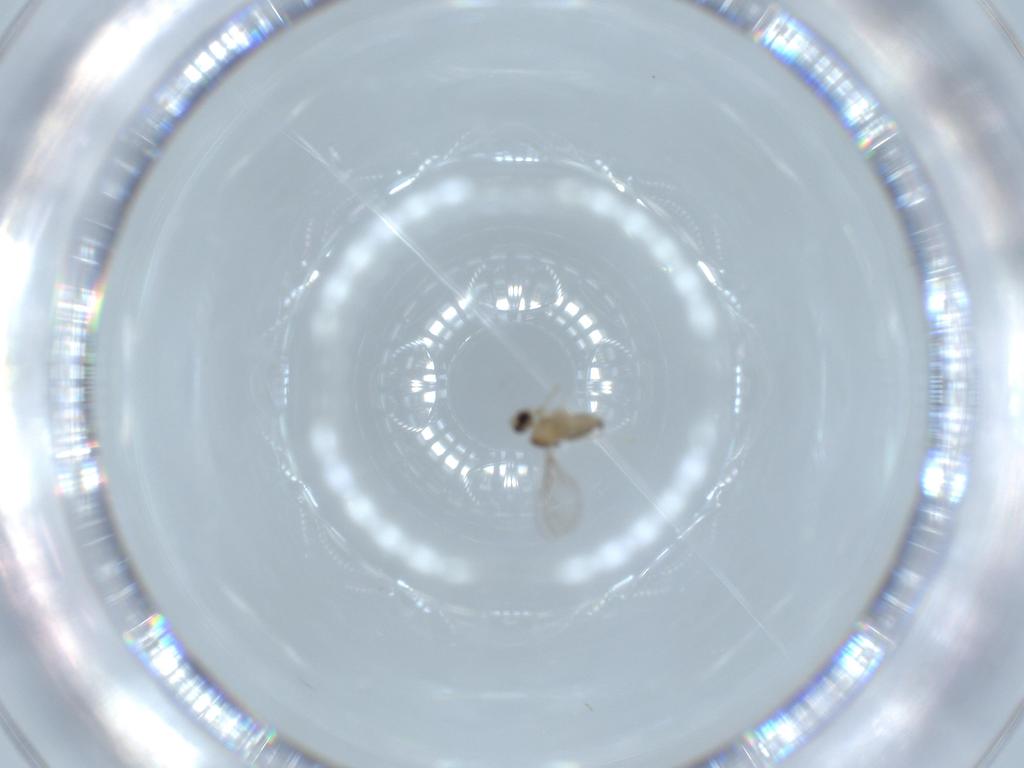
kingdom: Animalia
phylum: Arthropoda
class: Insecta
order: Diptera
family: Cecidomyiidae
